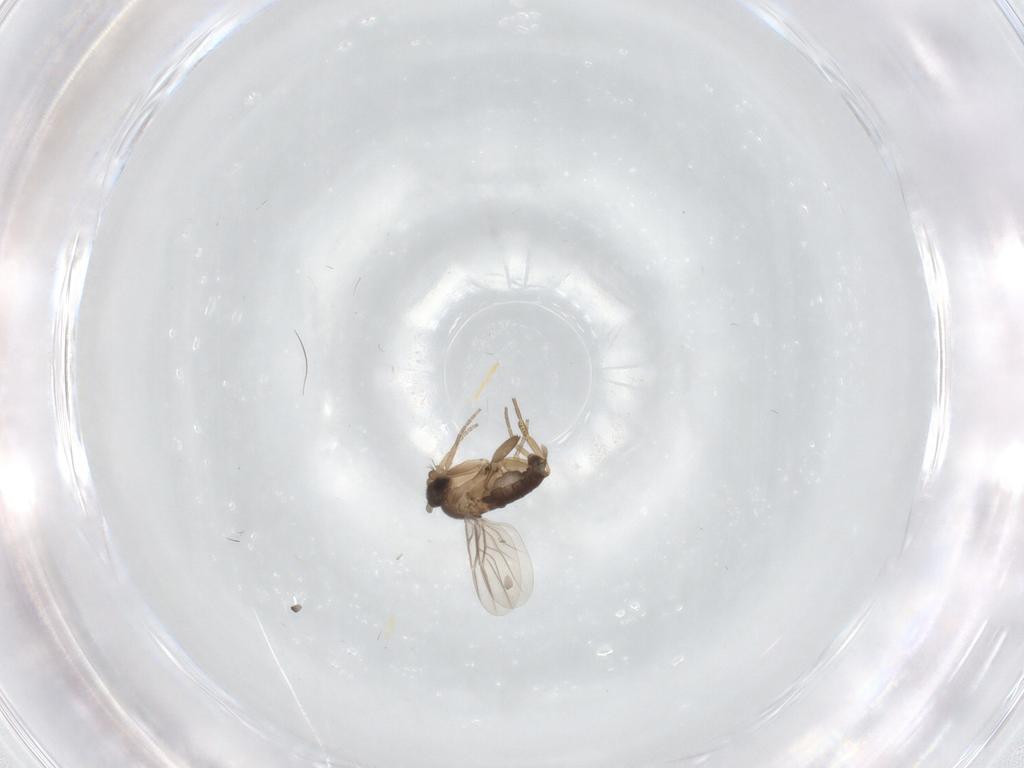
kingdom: Animalia
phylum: Arthropoda
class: Insecta
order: Diptera
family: Phoridae
